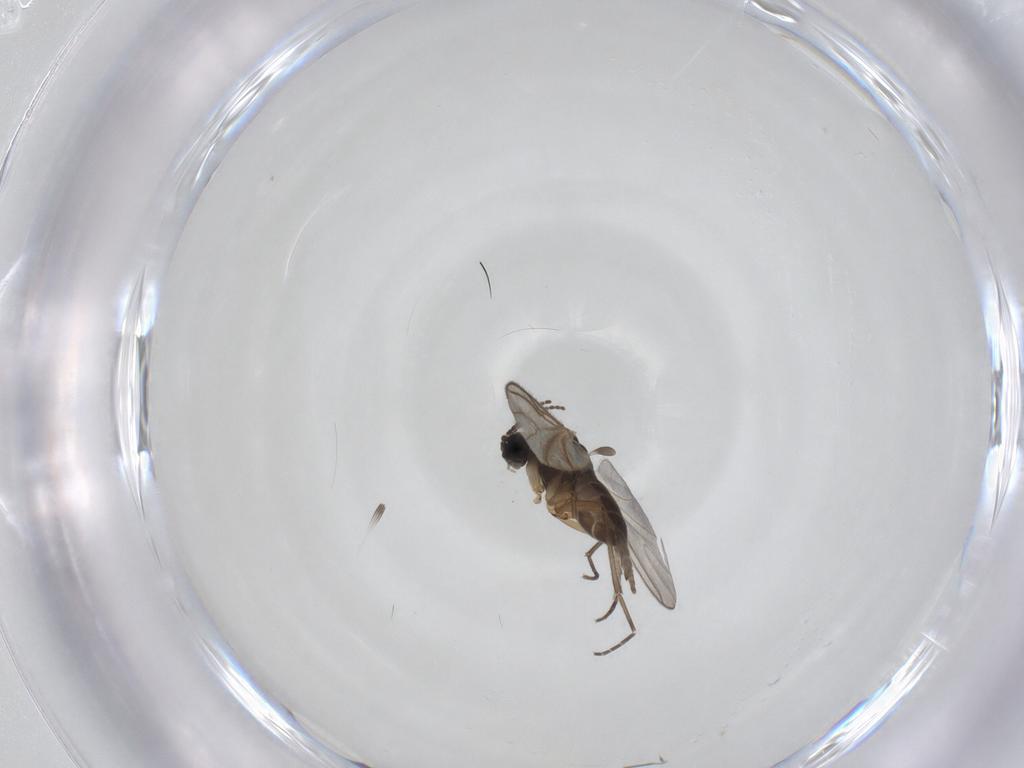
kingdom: Animalia
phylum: Arthropoda
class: Insecta
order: Diptera
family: Sciaridae
